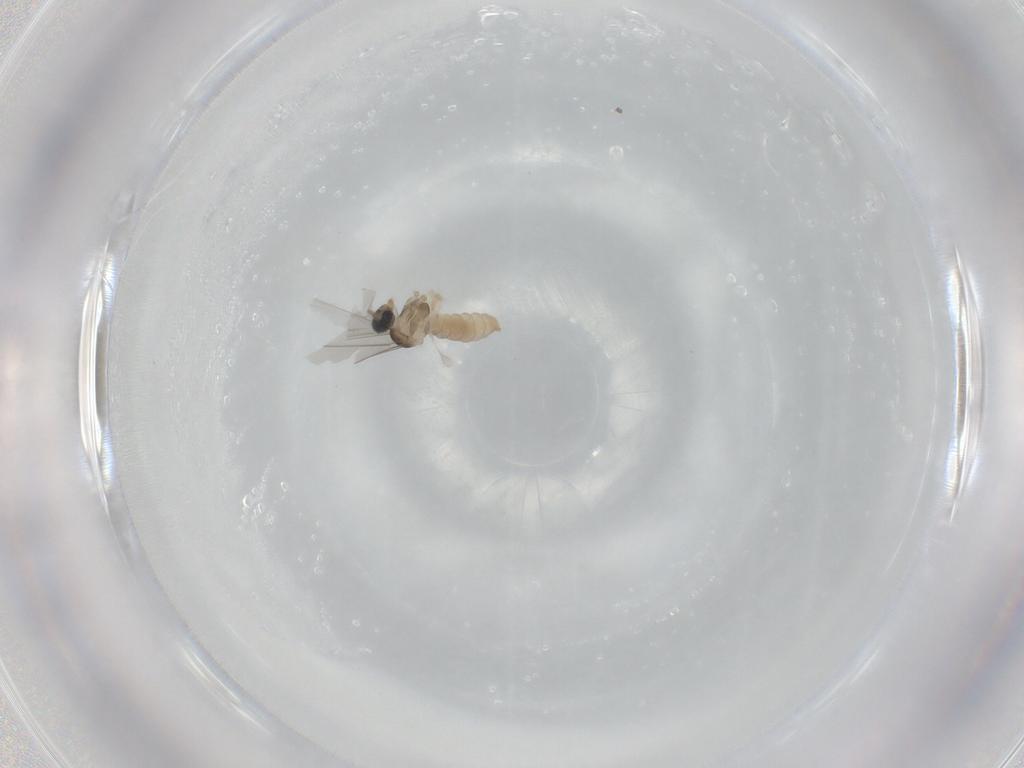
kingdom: Animalia
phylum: Arthropoda
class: Insecta
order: Diptera
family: Cecidomyiidae
